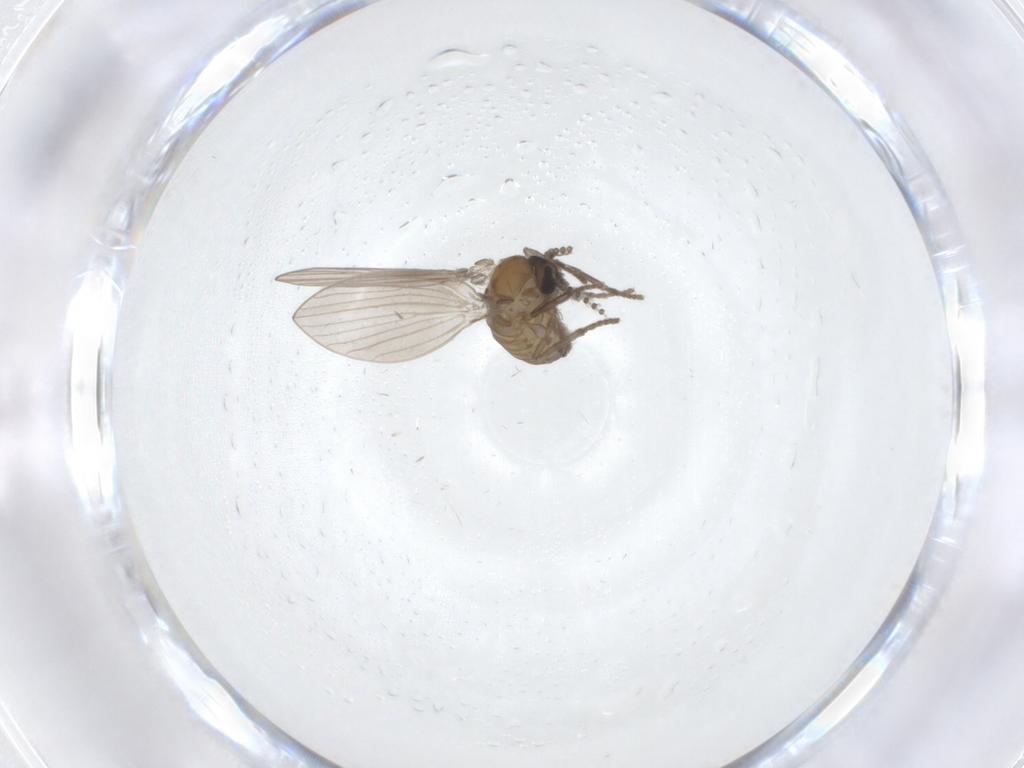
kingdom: Animalia
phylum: Arthropoda
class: Insecta
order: Diptera
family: Psychodidae
